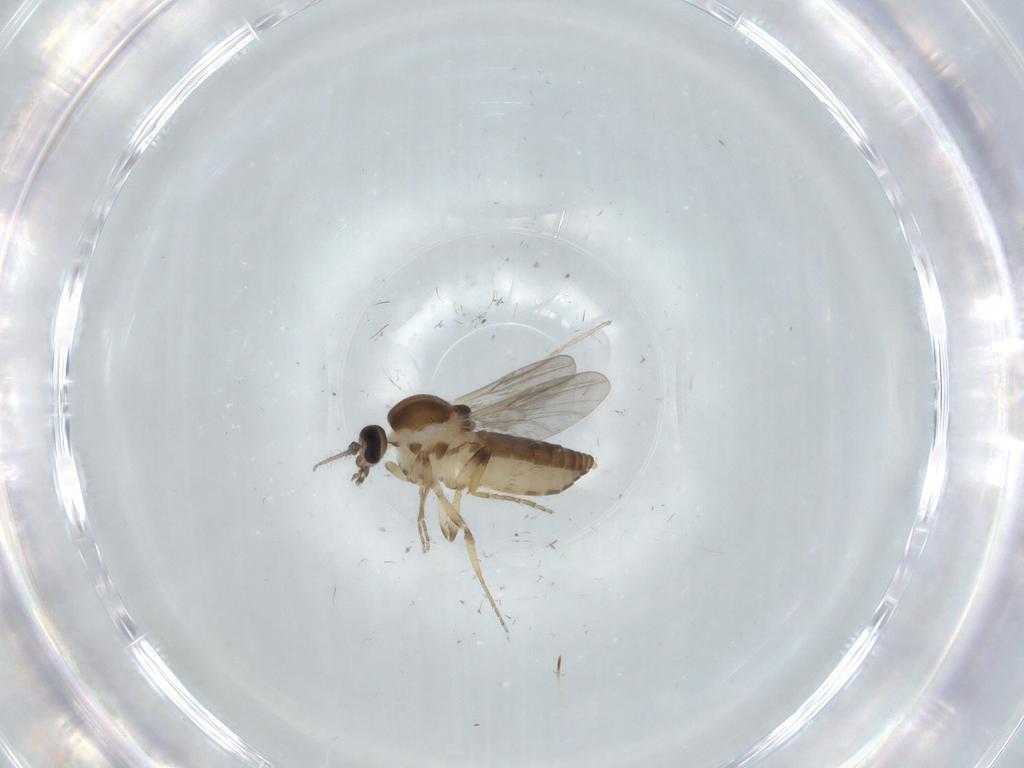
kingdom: Animalia
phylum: Arthropoda
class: Insecta
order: Diptera
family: Ceratopogonidae
